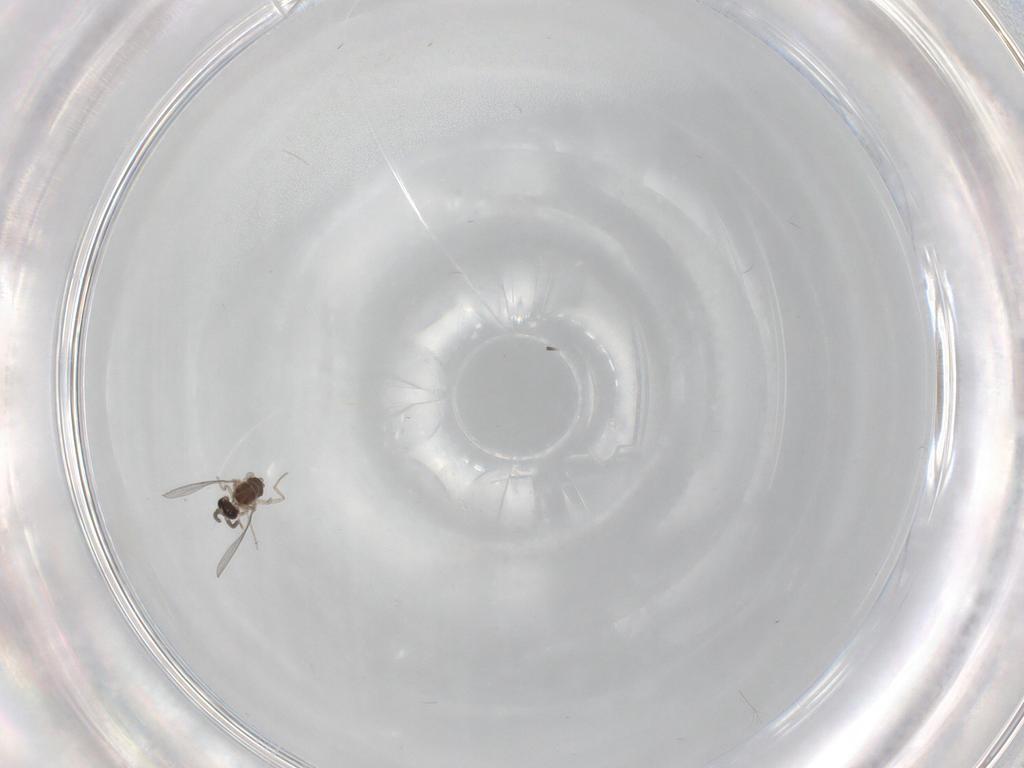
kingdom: Animalia
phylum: Arthropoda
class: Insecta
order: Diptera
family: Cecidomyiidae
